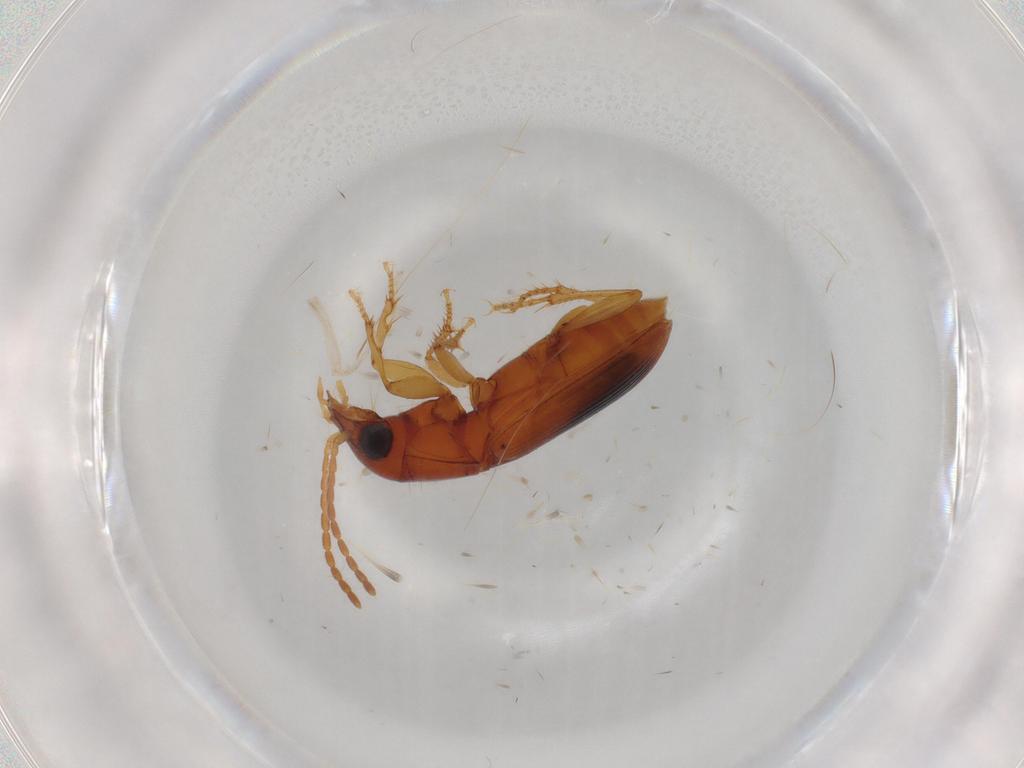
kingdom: Animalia
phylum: Arthropoda
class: Insecta
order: Coleoptera
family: Carabidae
